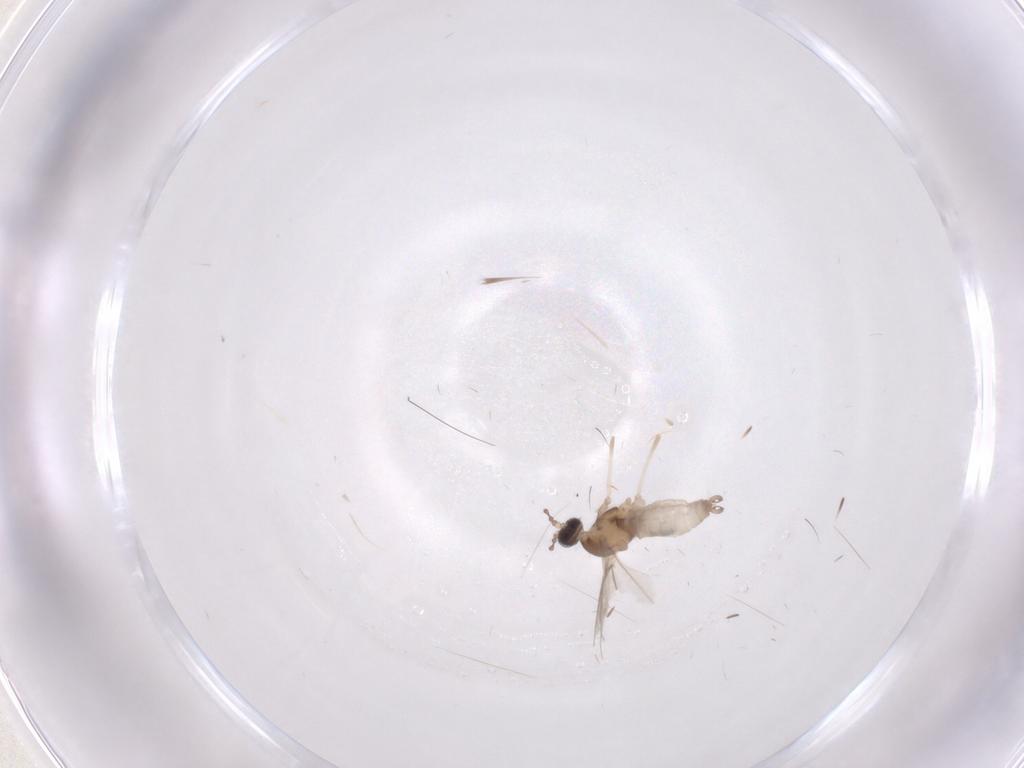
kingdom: Animalia
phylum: Arthropoda
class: Insecta
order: Diptera
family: Cecidomyiidae
